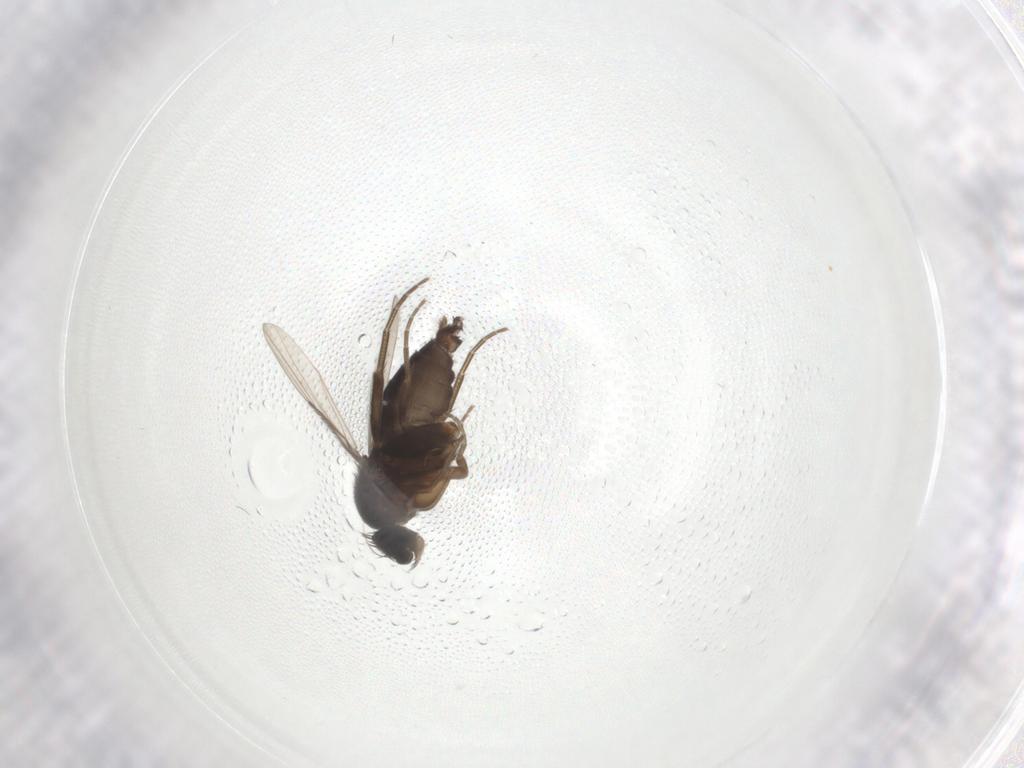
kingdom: Animalia
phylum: Arthropoda
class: Insecta
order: Diptera
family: Phoridae
